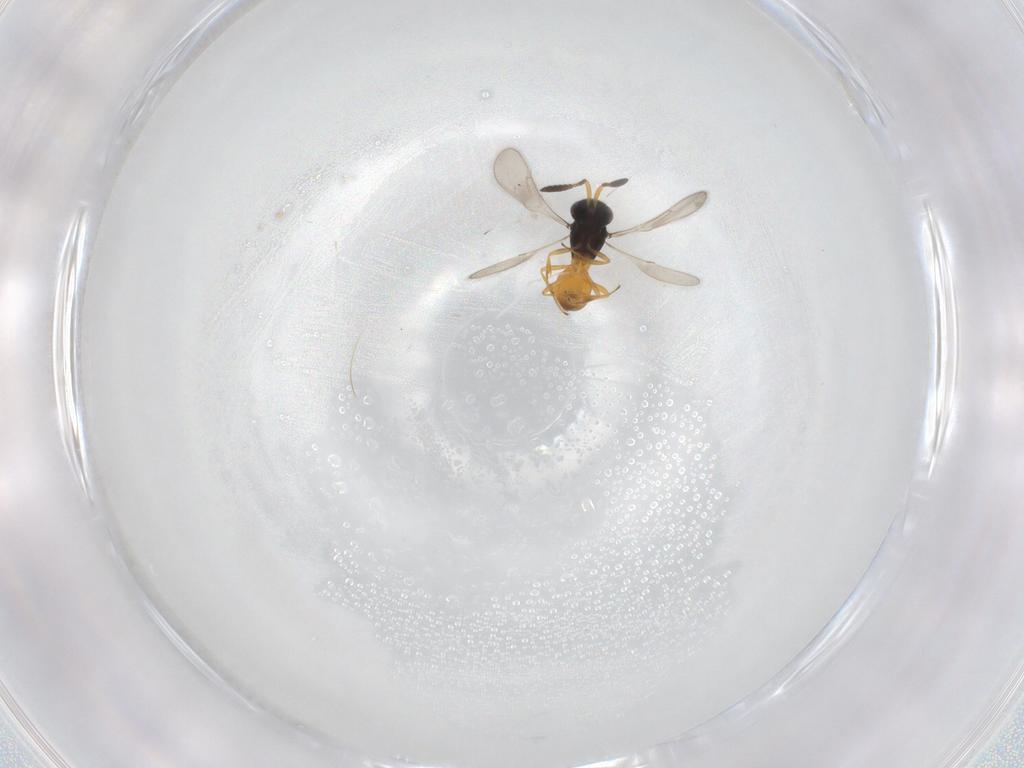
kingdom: Animalia
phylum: Arthropoda
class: Insecta
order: Hymenoptera
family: Scelionidae
